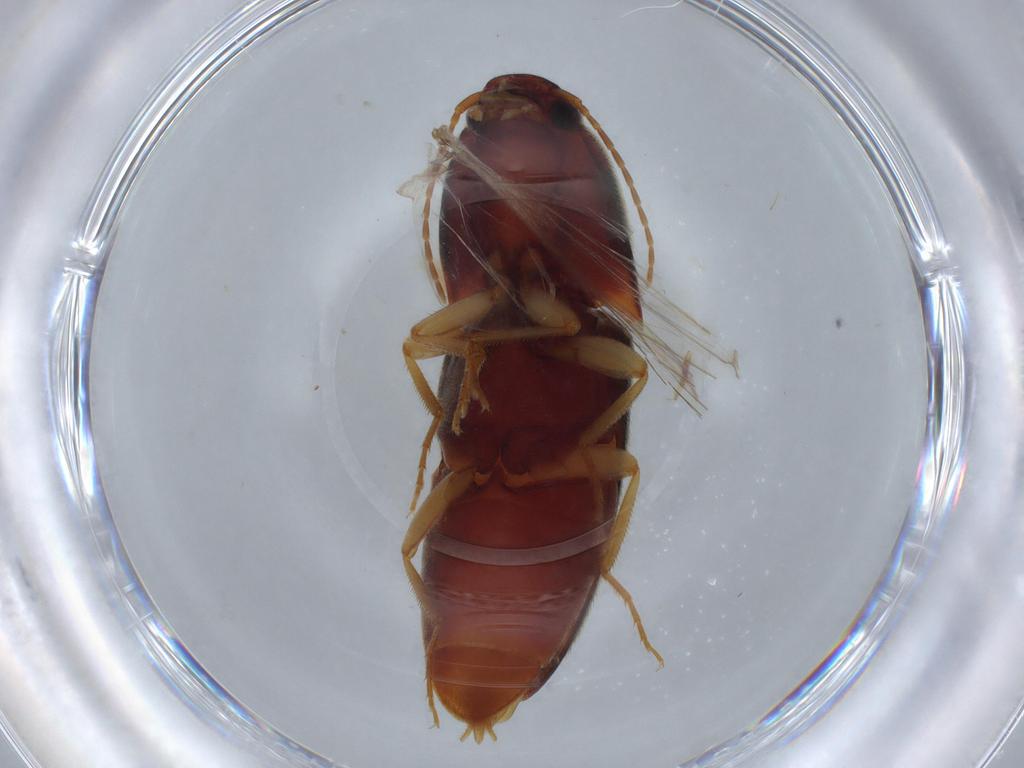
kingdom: Animalia
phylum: Arthropoda
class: Insecta
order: Coleoptera
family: Elateridae
